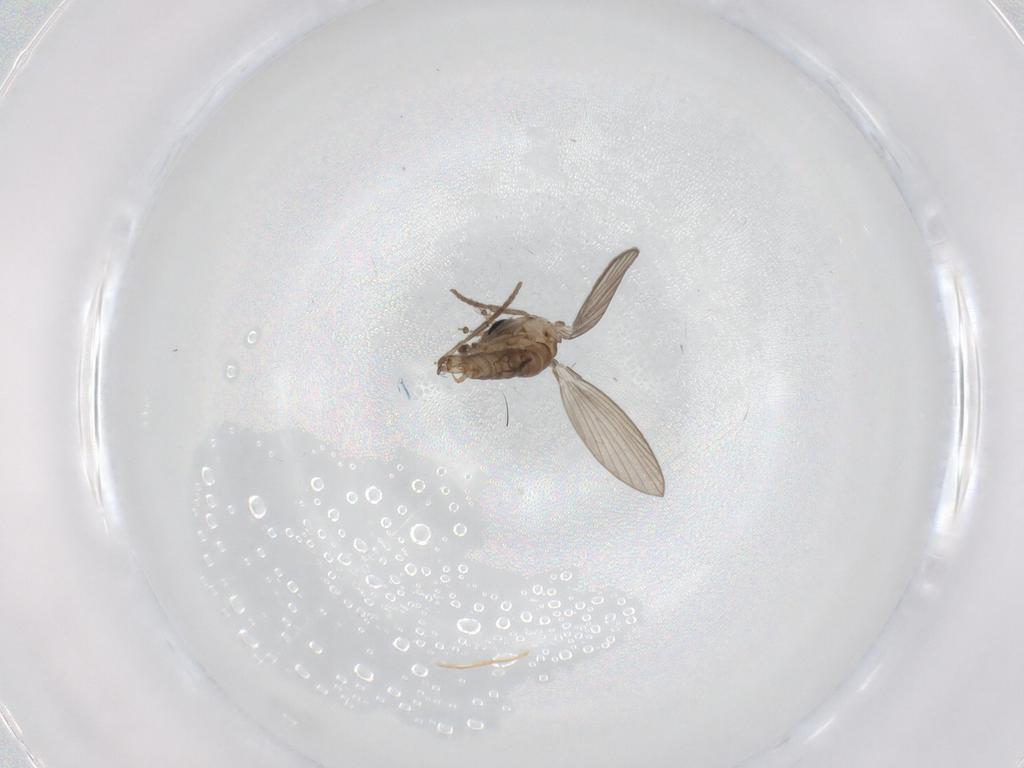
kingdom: Animalia
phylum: Arthropoda
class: Insecta
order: Diptera
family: Psychodidae
